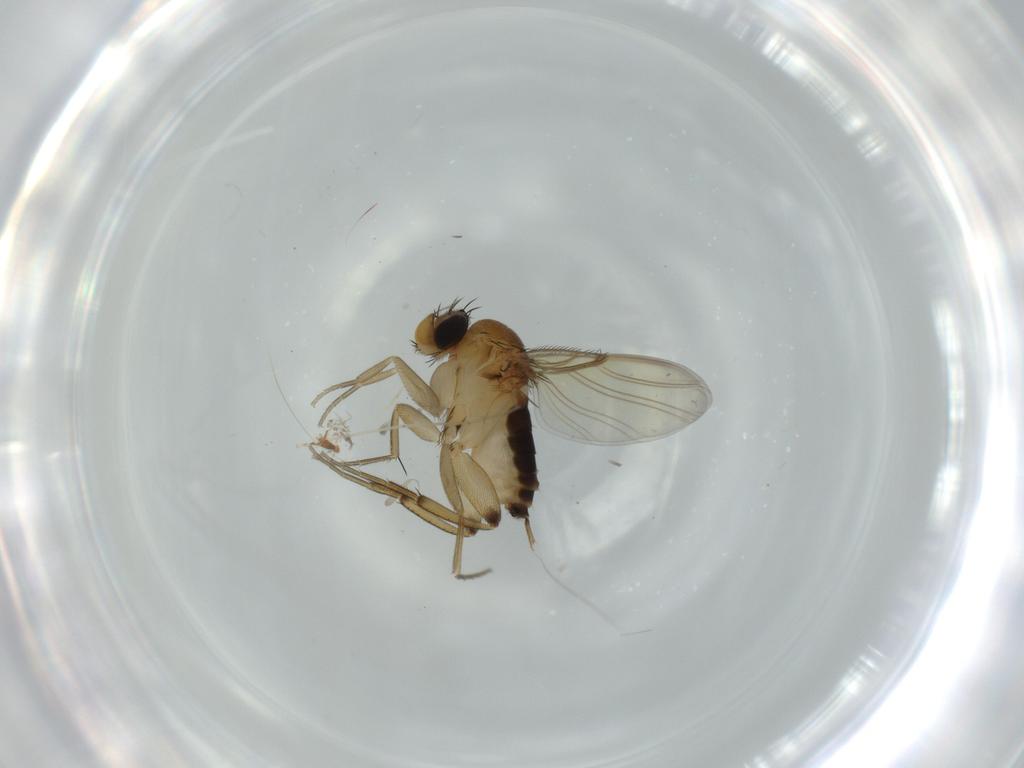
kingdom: Animalia
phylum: Arthropoda
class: Insecta
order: Diptera
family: Cecidomyiidae
